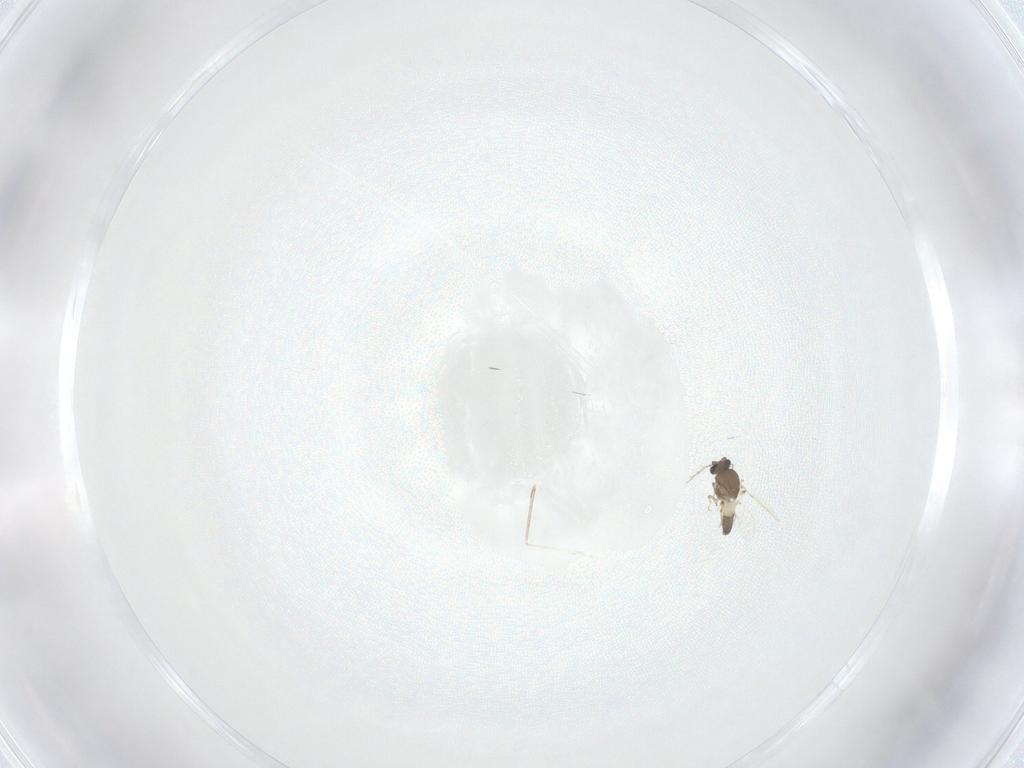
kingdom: Animalia
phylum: Arthropoda
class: Insecta
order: Diptera
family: Cecidomyiidae
